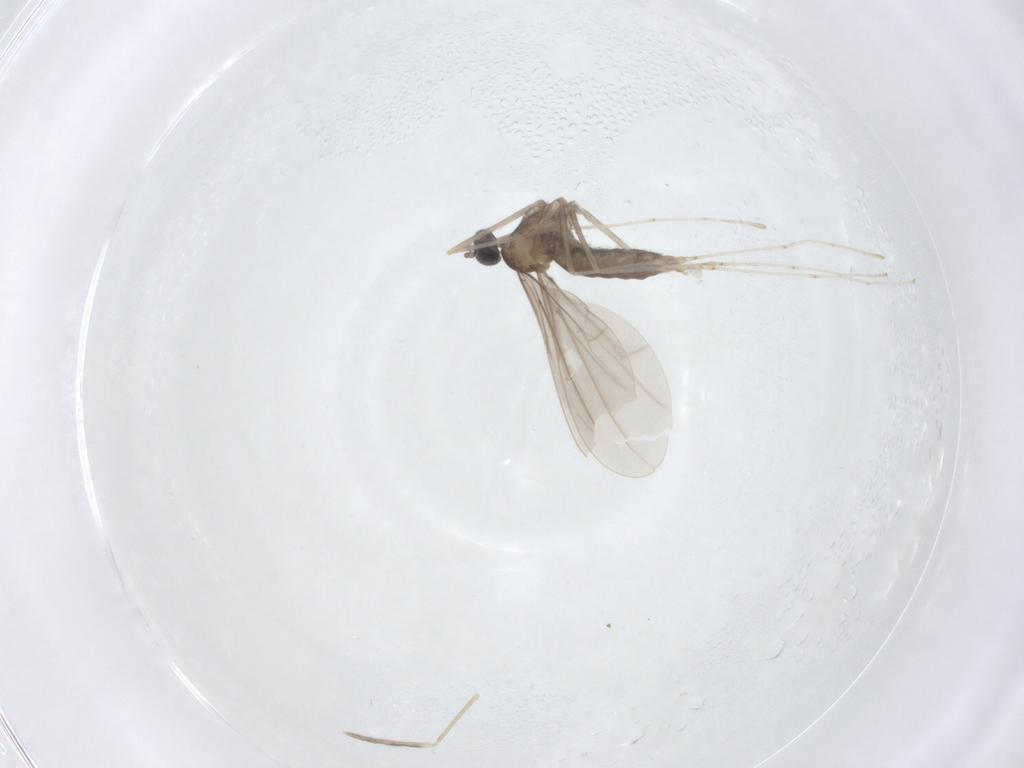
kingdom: Animalia
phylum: Arthropoda
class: Insecta
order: Diptera
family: Cecidomyiidae
